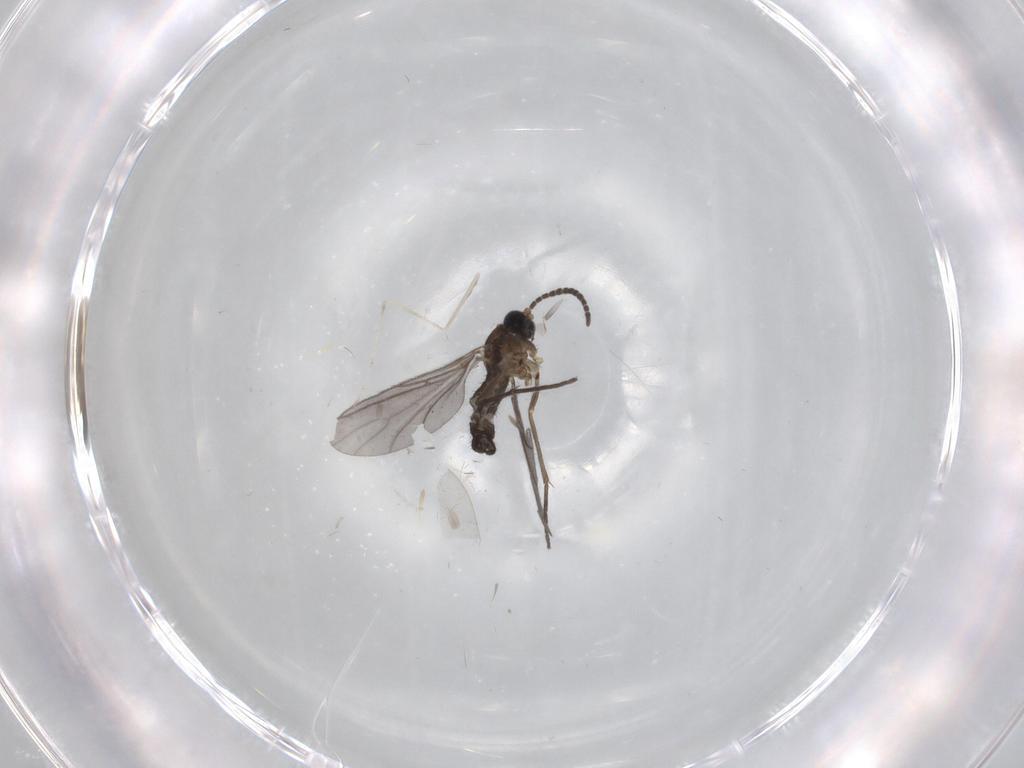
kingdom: Animalia
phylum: Arthropoda
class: Insecta
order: Diptera
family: Sciaridae
